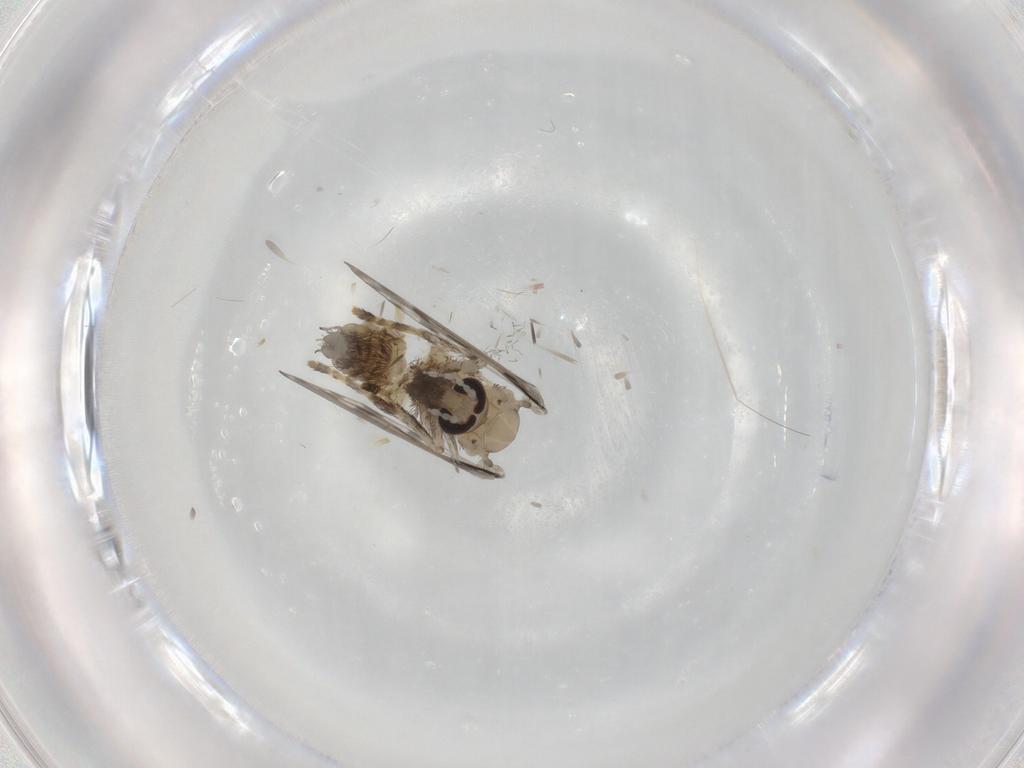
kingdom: Animalia
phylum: Arthropoda
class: Insecta
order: Diptera
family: Psychodidae
